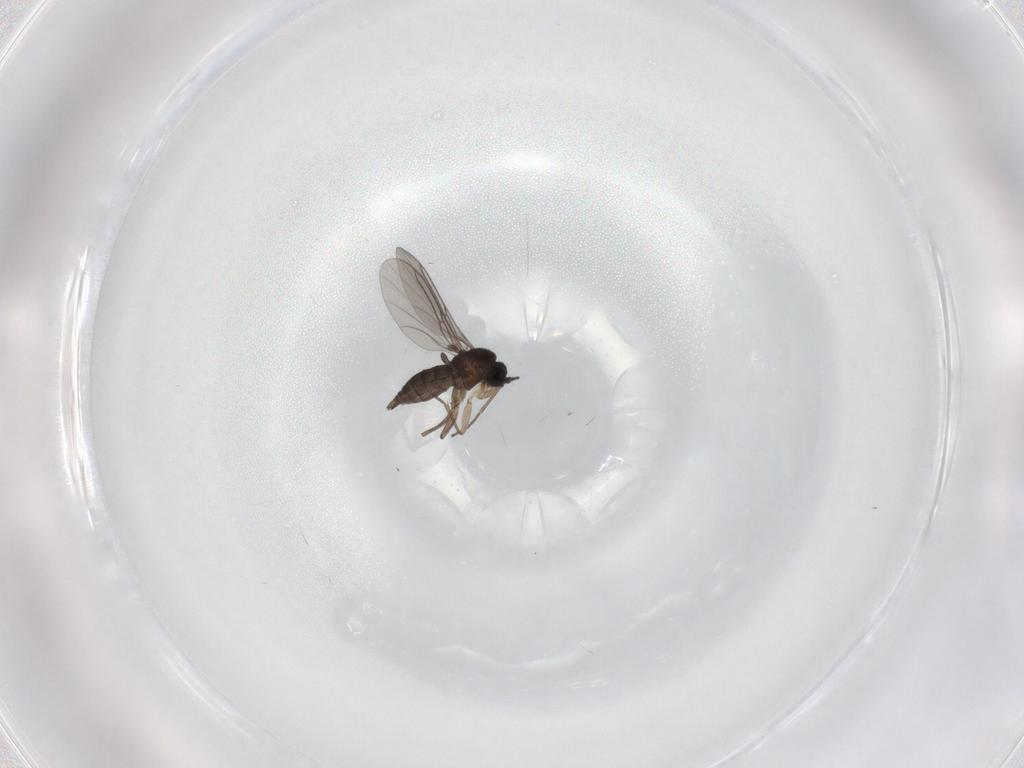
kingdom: Animalia
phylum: Arthropoda
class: Insecta
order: Diptera
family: Sciaridae
